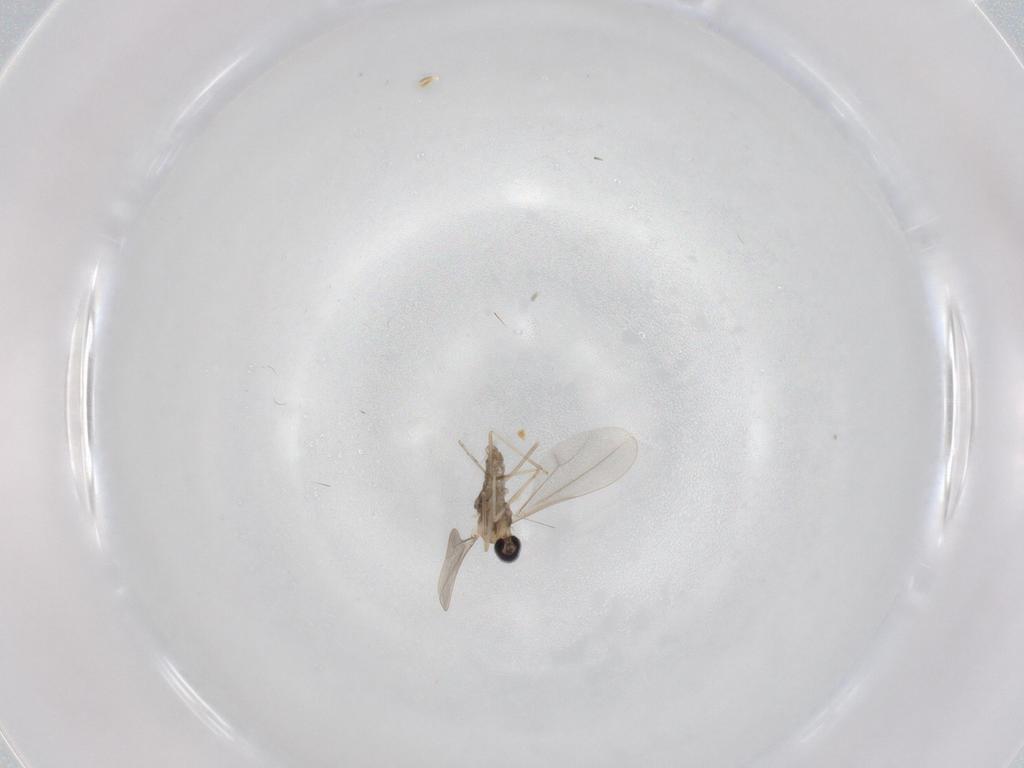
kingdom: Animalia
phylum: Arthropoda
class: Insecta
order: Diptera
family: Cecidomyiidae
